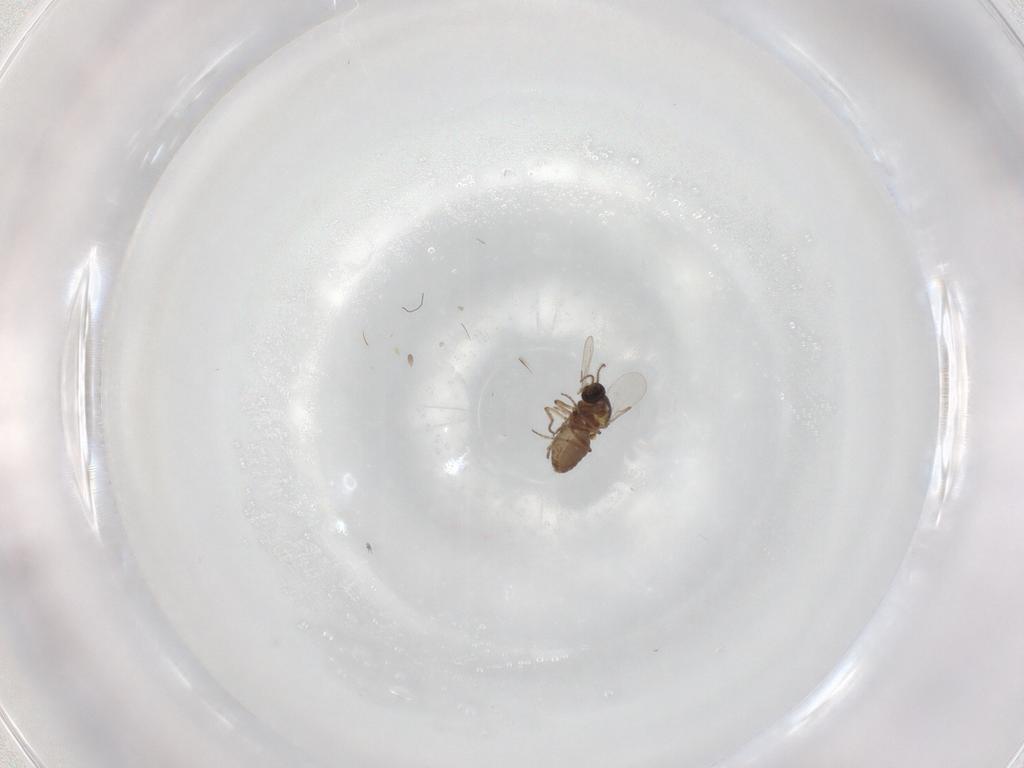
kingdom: Animalia
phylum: Arthropoda
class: Insecta
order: Diptera
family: Ceratopogonidae
